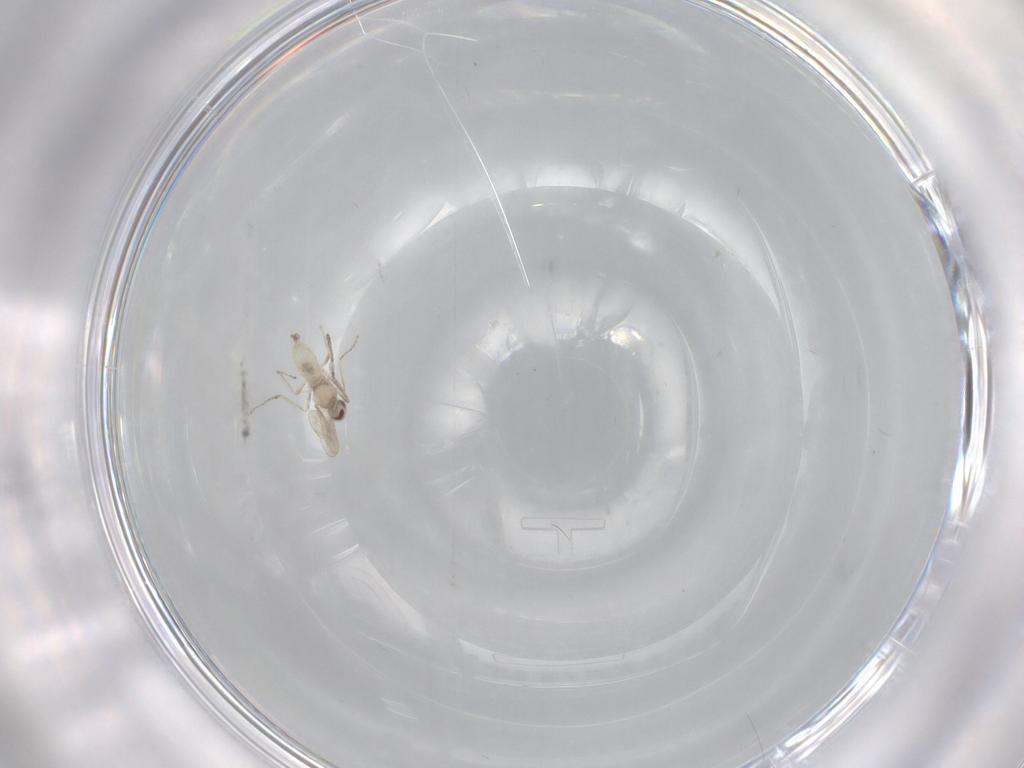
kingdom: Animalia
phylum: Arthropoda
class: Insecta
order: Diptera
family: Cecidomyiidae
